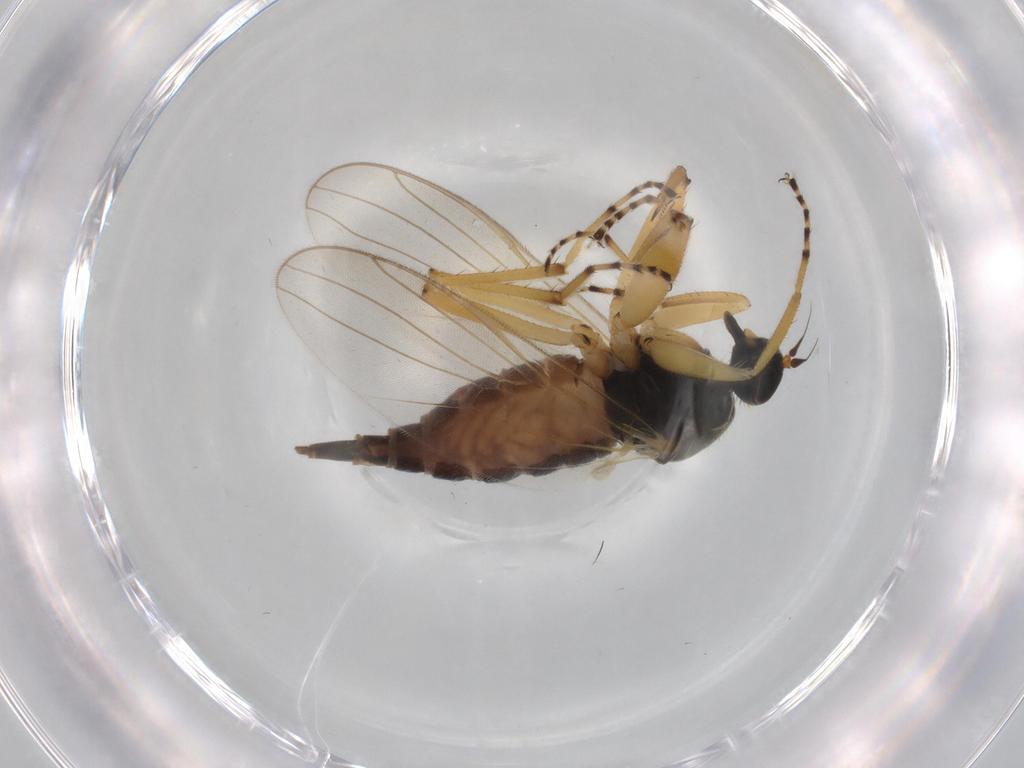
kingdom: Animalia
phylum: Arthropoda
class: Insecta
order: Diptera
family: Hybotidae
